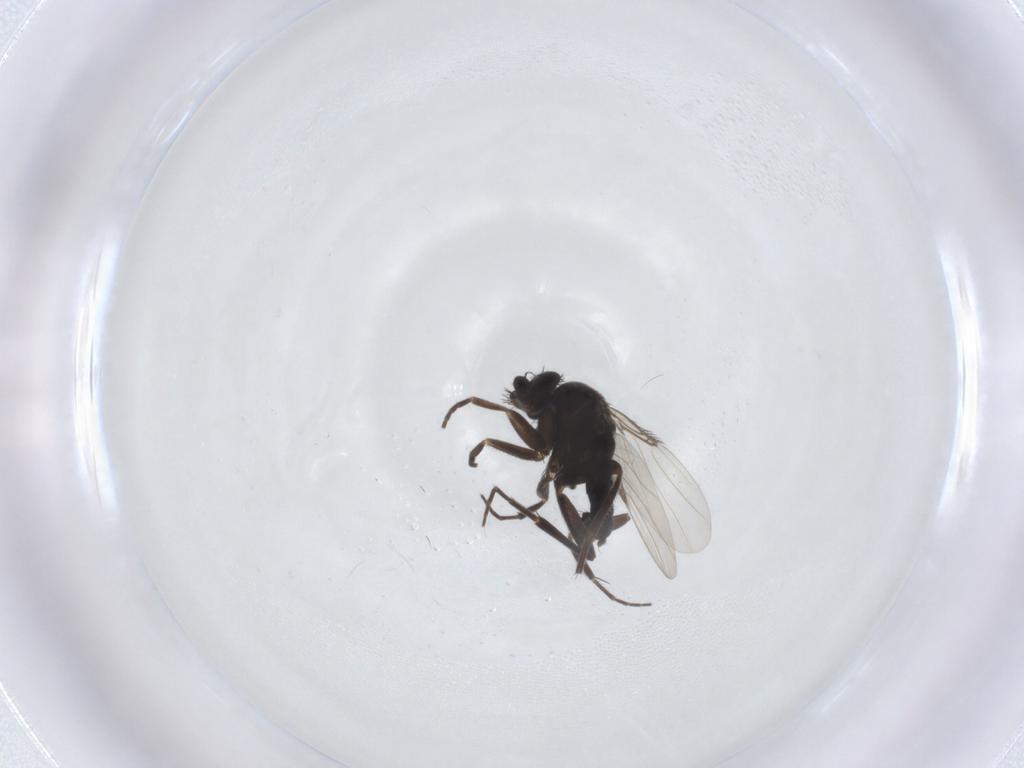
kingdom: Animalia
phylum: Arthropoda
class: Insecta
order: Diptera
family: Phoridae
